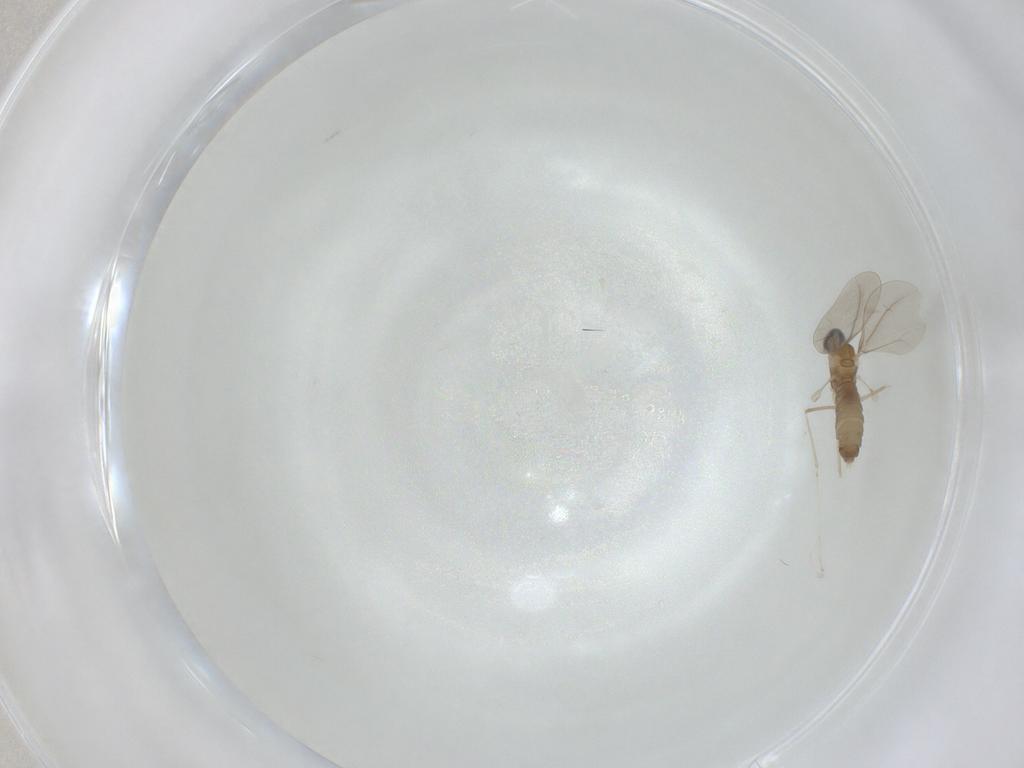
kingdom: Animalia
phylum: Arthropoda
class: Insecta
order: Diptera
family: Cecidomyiidae
